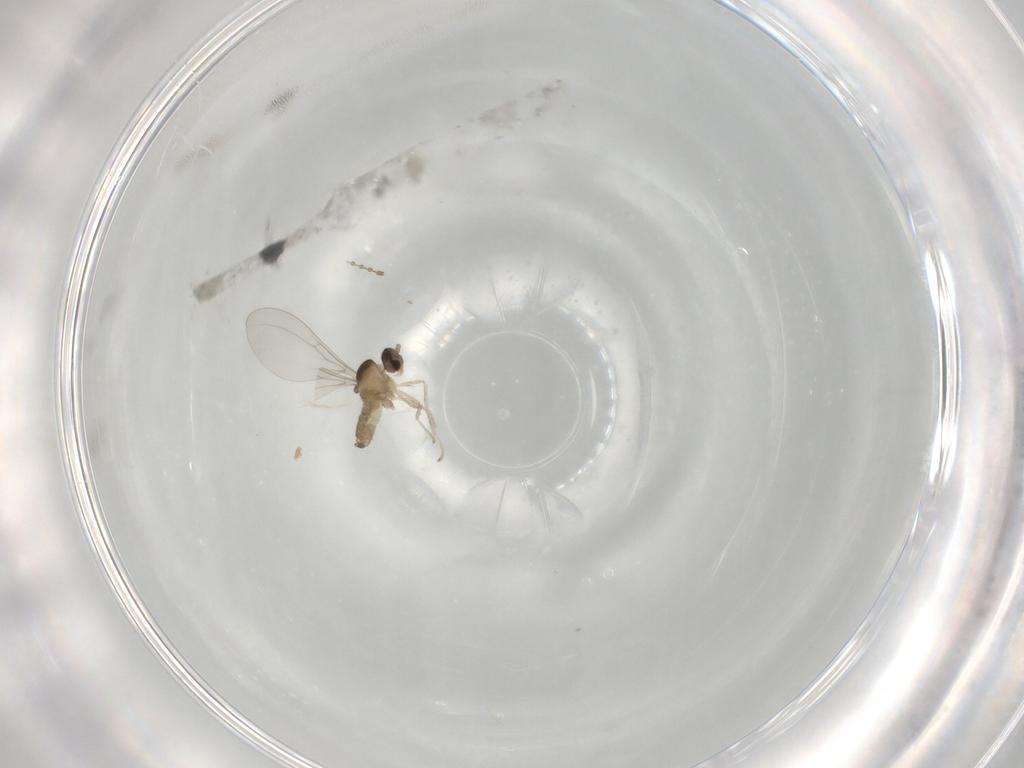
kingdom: Animalia
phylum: Arthropoda
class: Insecta
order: Diptera
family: Cecidomyiidae
